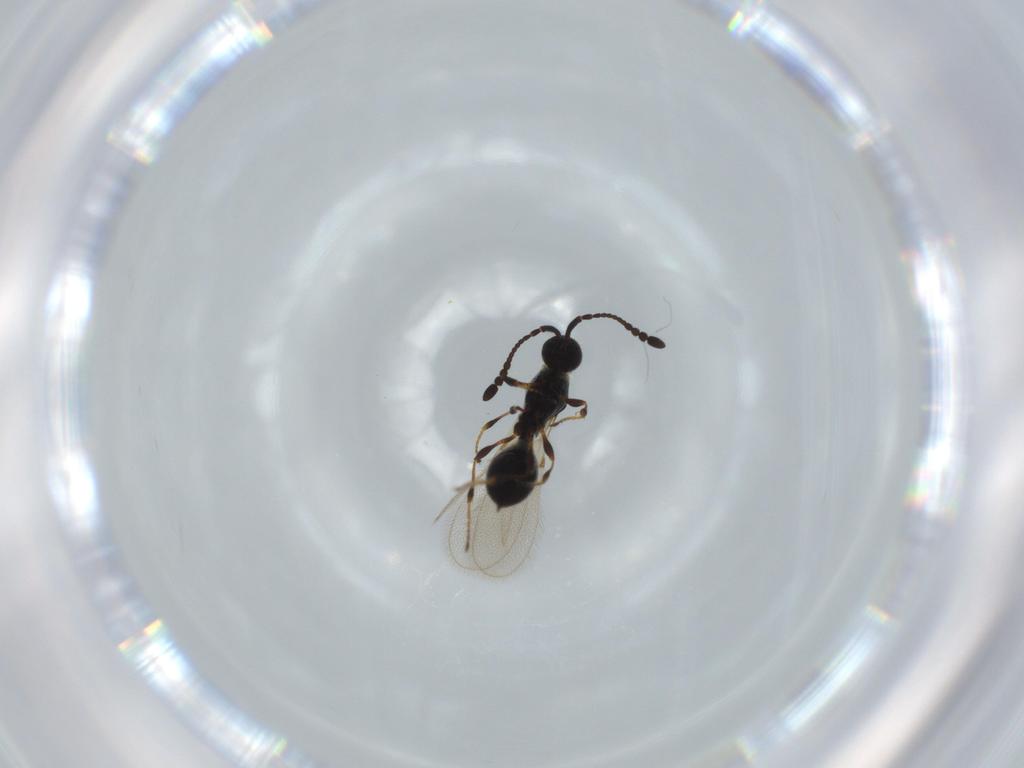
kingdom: Animalia
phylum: Arthropoda
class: Insecta
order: Hymenoptera
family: Diapriidae
